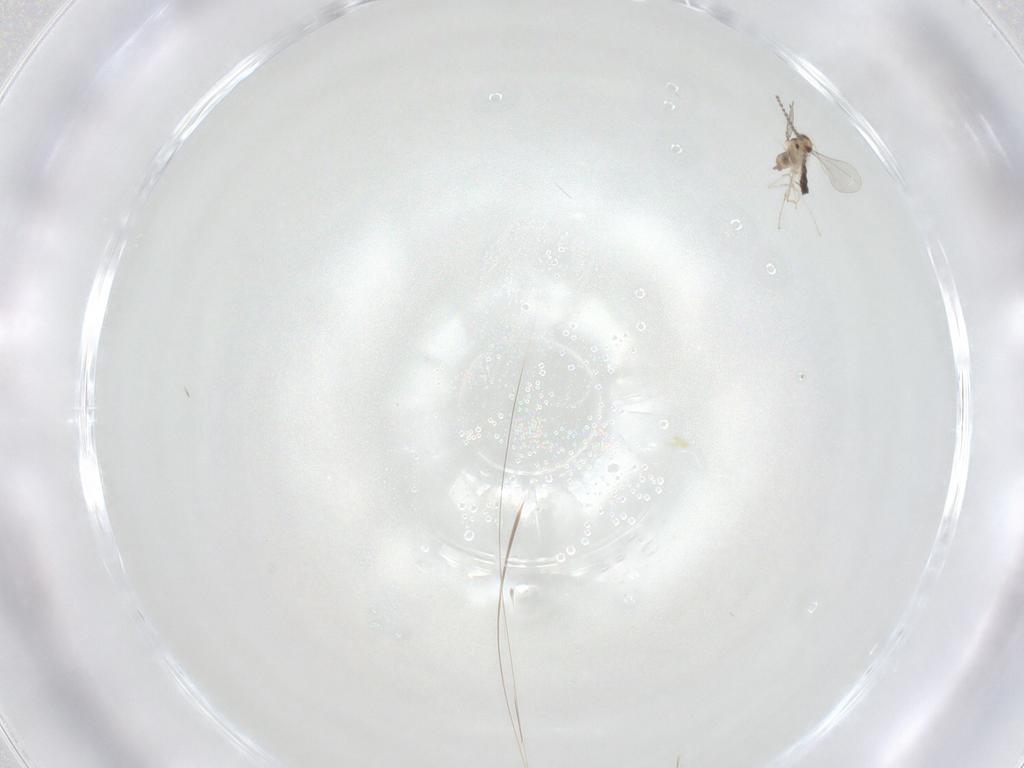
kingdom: Animalia
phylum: Arthropoda
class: Insecta
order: Diptera
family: Cecidomyiidae
